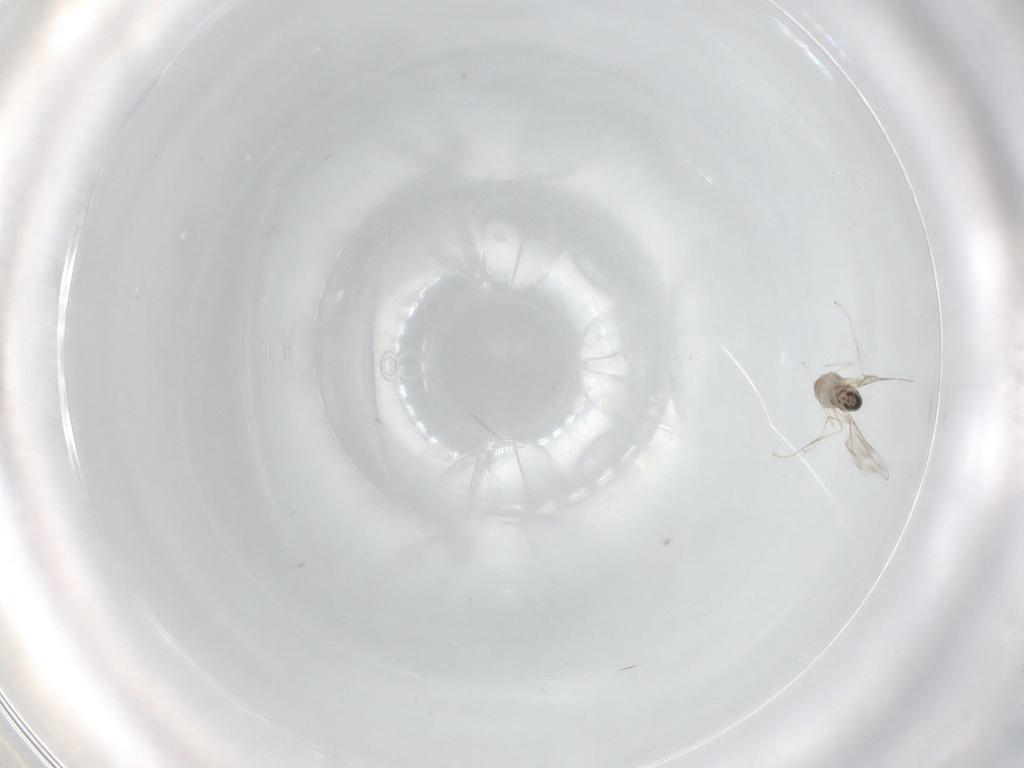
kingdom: Animalia
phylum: Arthropoda
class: Insecta
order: Diptera
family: Cecidomyiidae
